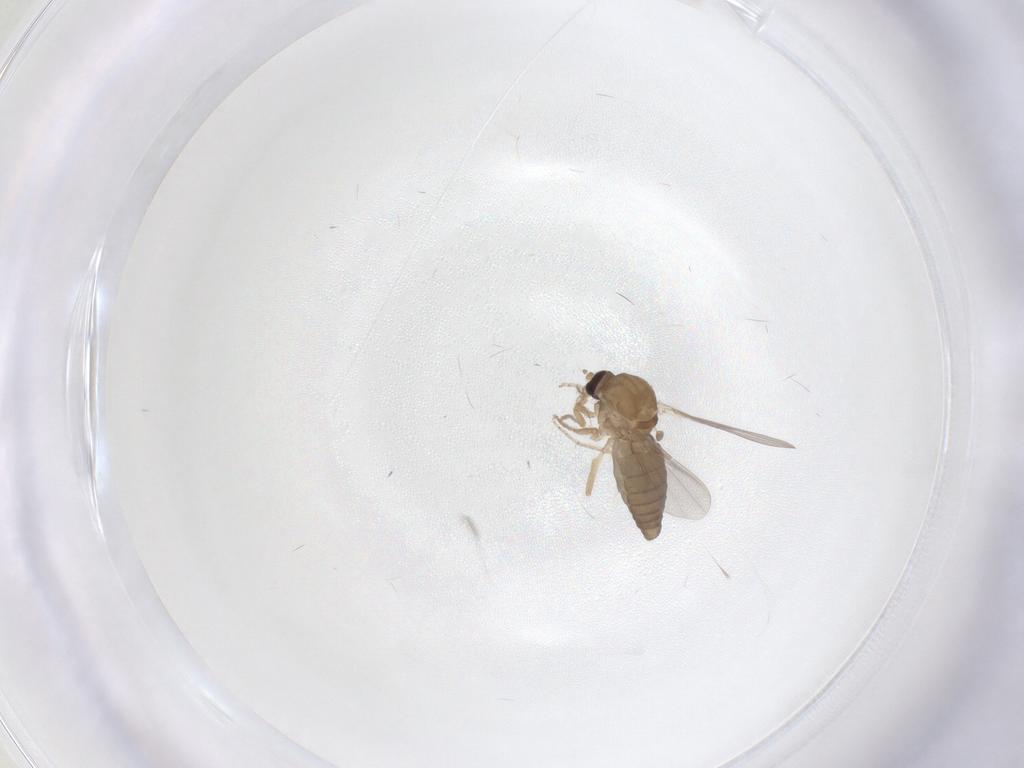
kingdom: Animalia
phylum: Arthropoda
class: Insecta
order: Diptera
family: Ceratopogonidae
